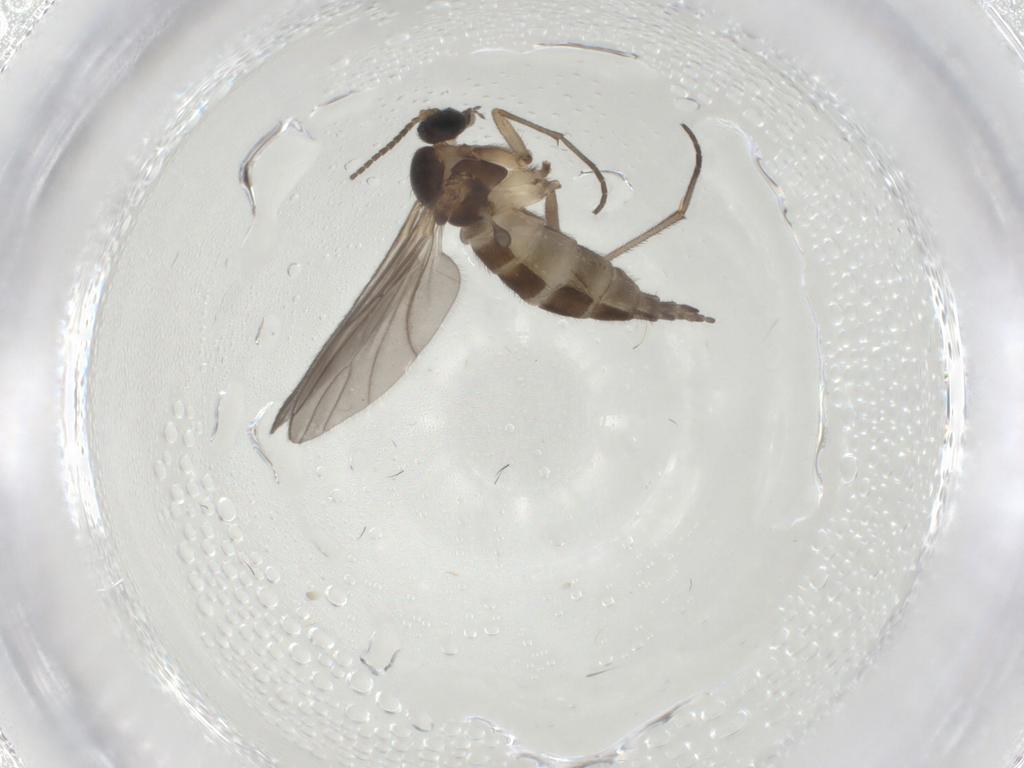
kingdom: Animalia
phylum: Arthropoda
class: Insecta
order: Diptera
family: Sciaridae
